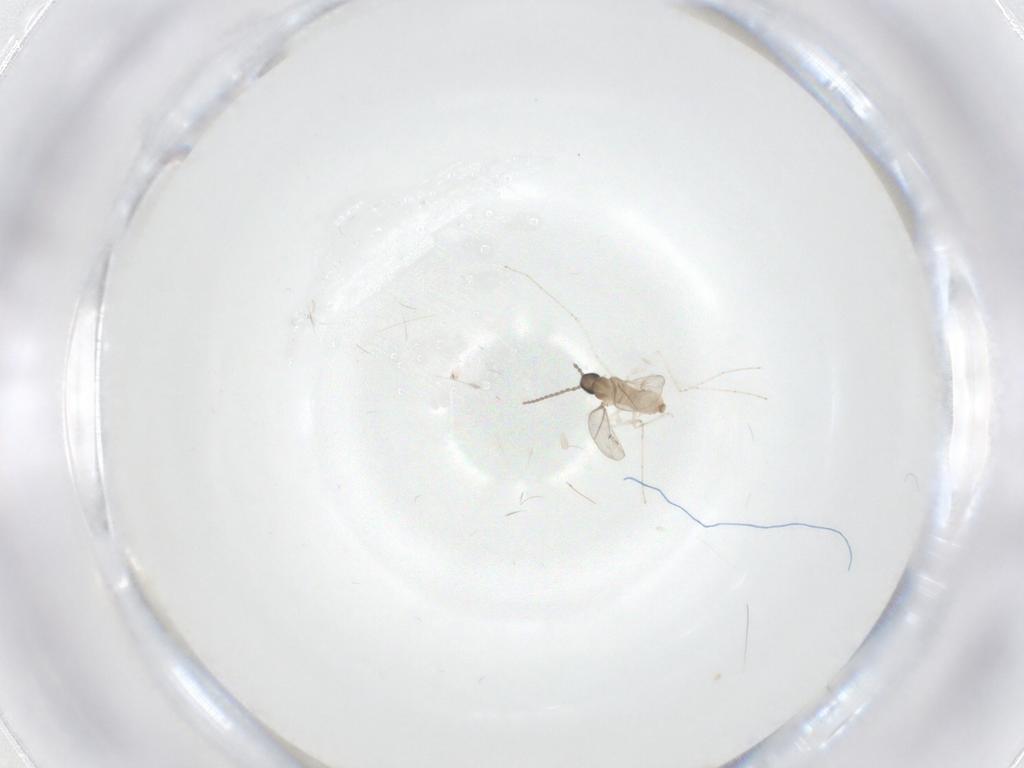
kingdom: Animalia
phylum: Arthropoda
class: Insecta
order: Diptera
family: Cecidomyiidae
